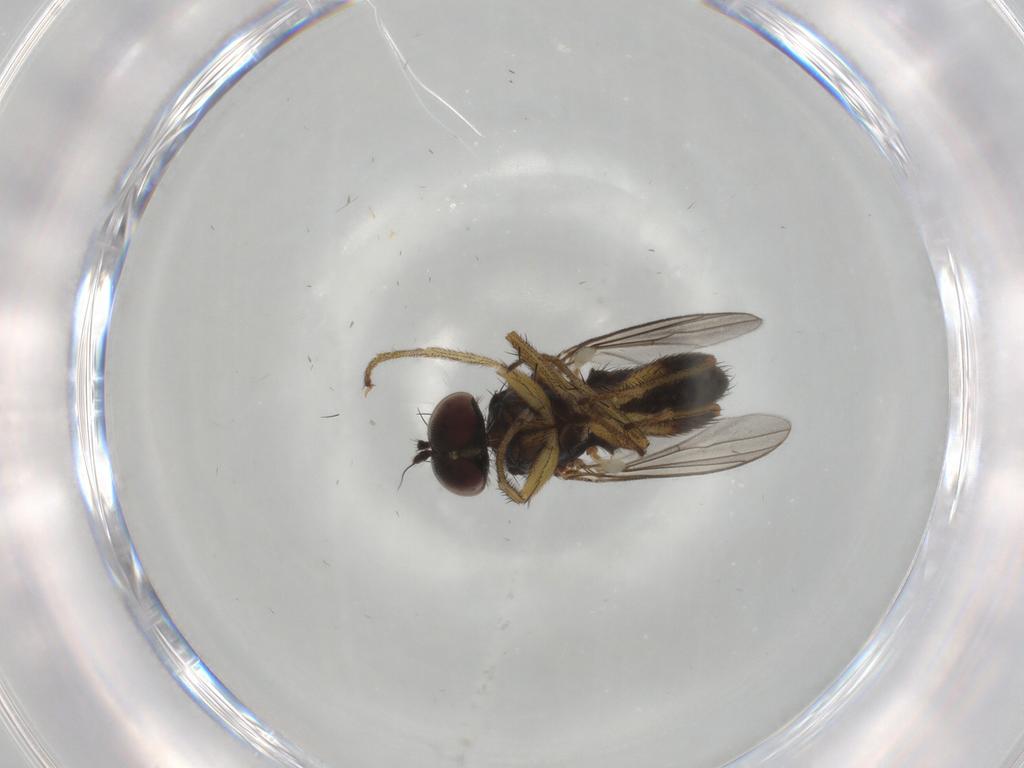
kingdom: Animalia
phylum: Arthropoda
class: Insecta
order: Diptera
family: Dolichopodidae
